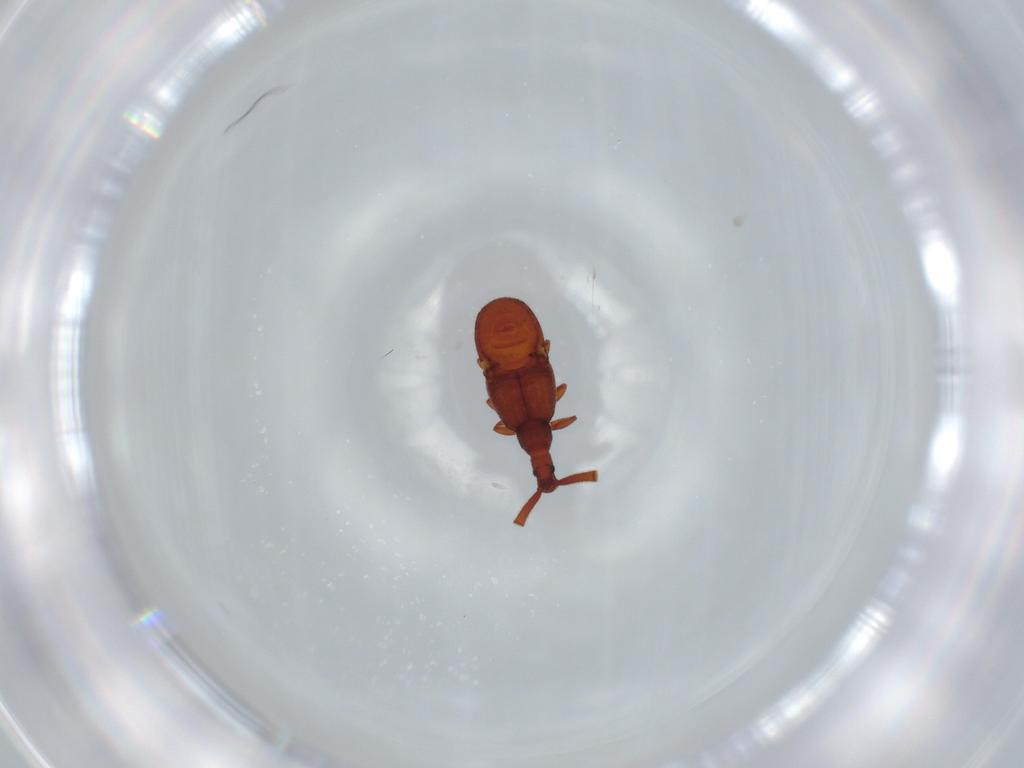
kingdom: Animalia
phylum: Arthropoda
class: Insecta
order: Coleoptera
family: Staphylinidae
